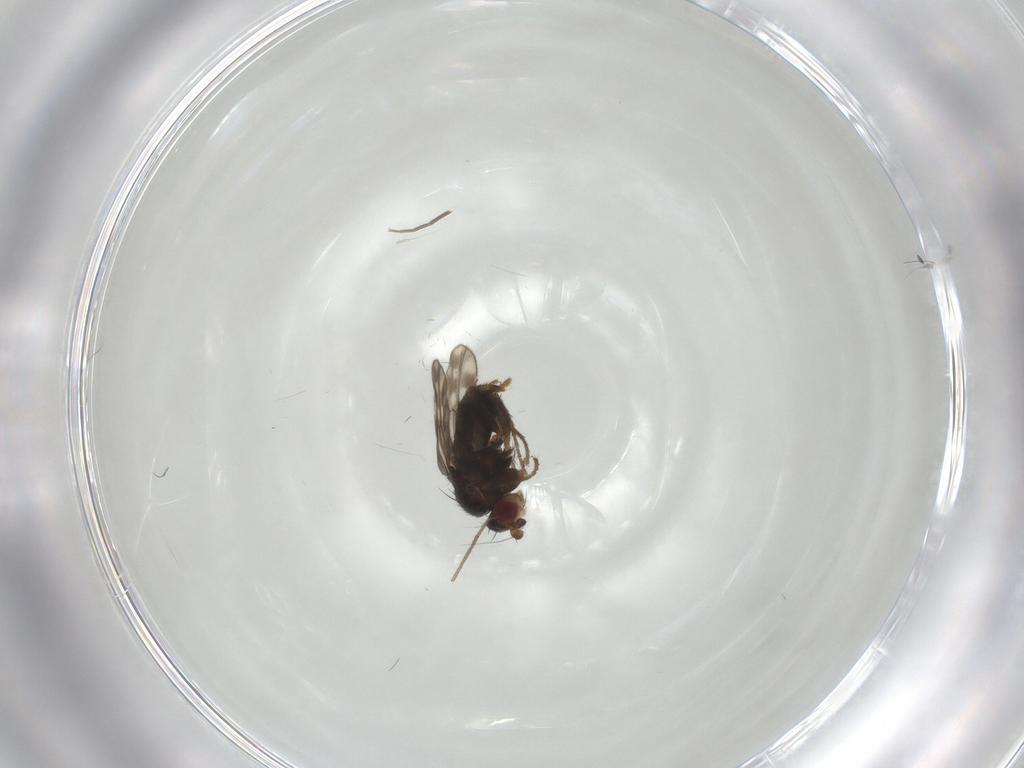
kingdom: Animalia
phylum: Arthropoda
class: Insecta
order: Diptera
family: Sphaeroceridae
